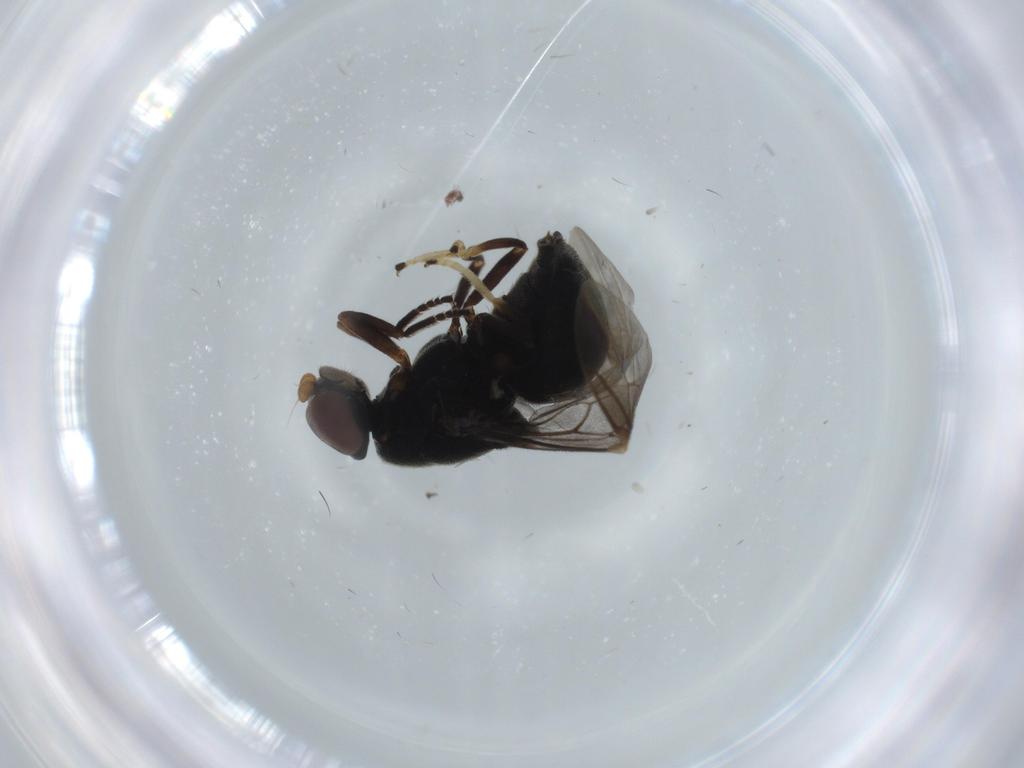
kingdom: Animalia
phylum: Arthropoda
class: Insecta
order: Diptera
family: Stratiomyidae
